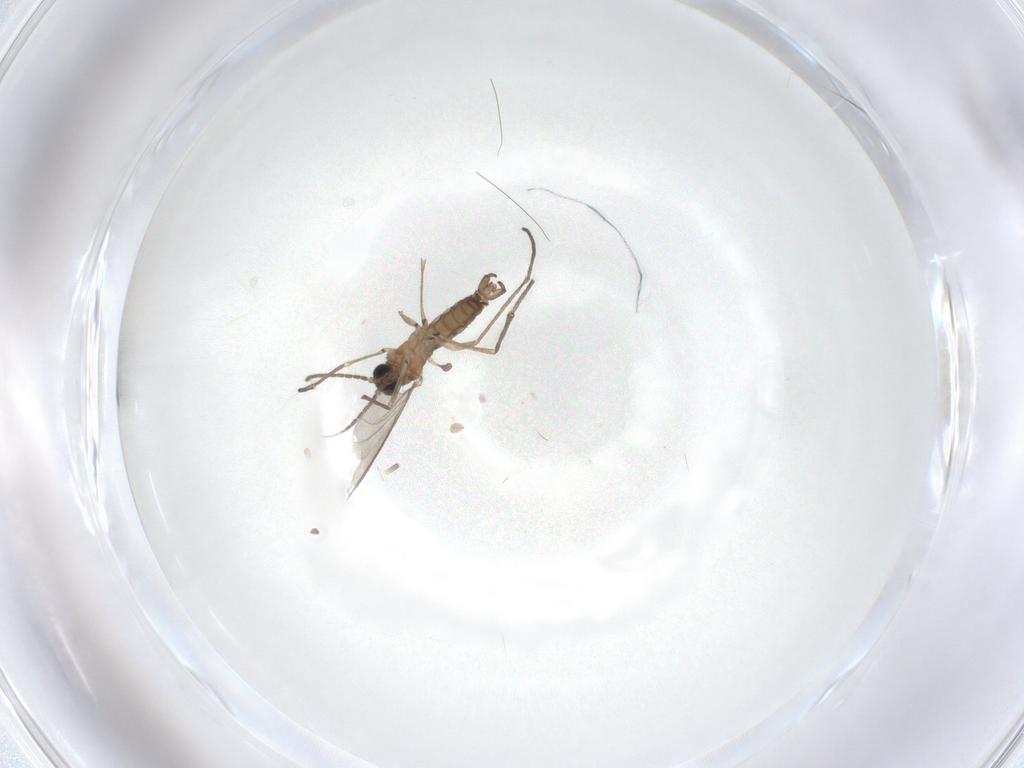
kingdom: Animalia
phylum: Arthropoda
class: Insecta
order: Diptera
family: Sciaridae
